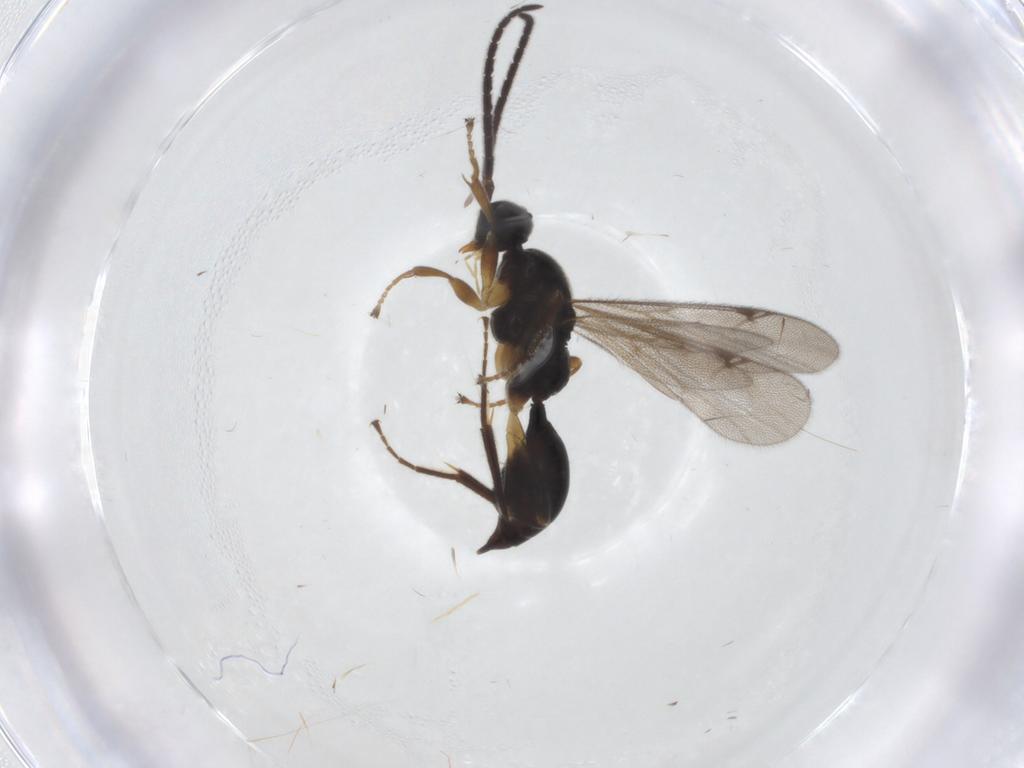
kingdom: Animalia
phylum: Arthropoda
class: Insecta
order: Hymenoptera
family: Proctotrupidae
